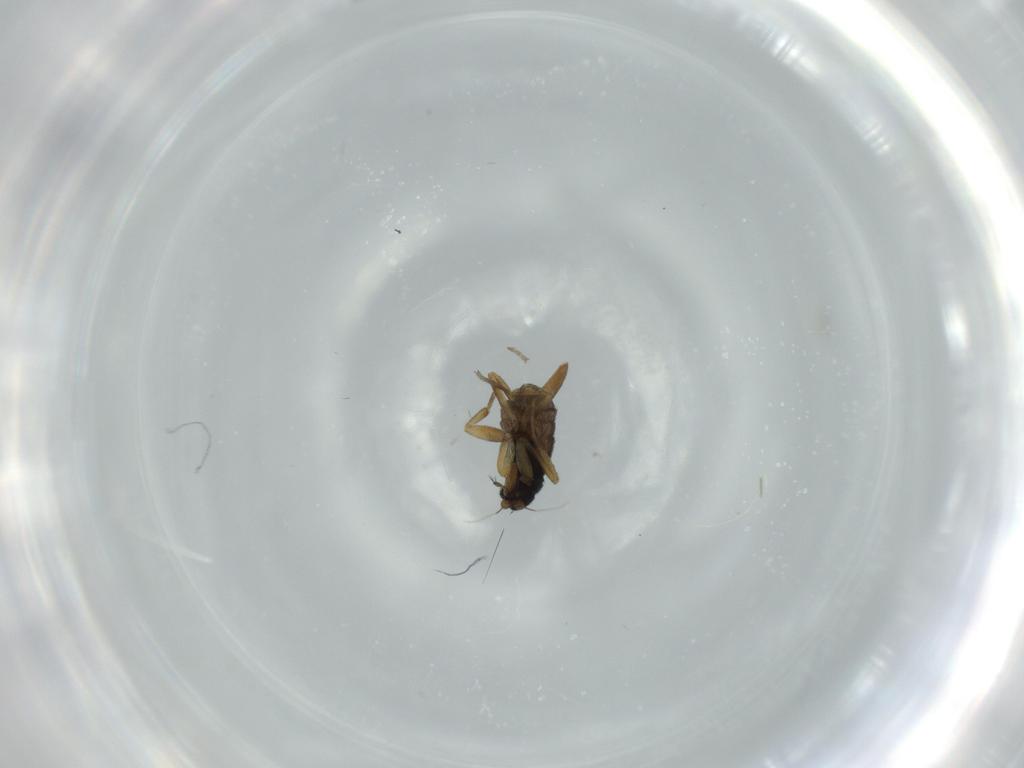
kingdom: Animalia
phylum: Arthropoda
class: Insecta
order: Diptera
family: Phoridae
